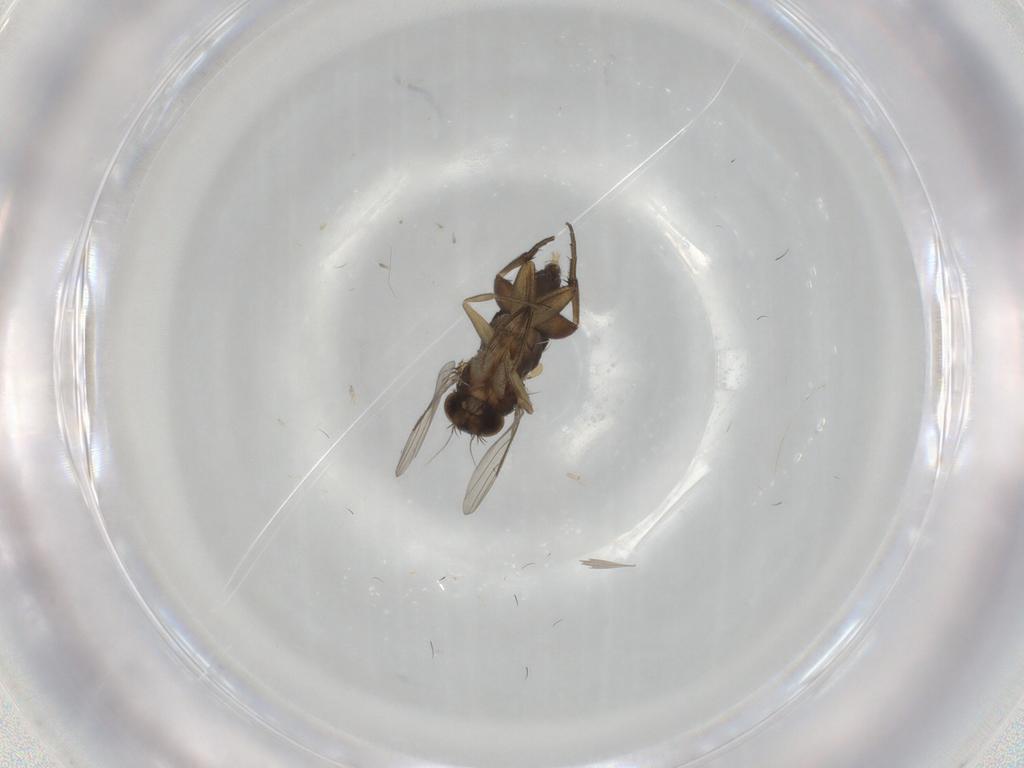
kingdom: Animalia
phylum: Arthropoda
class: Insecta
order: Diptera
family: Phoridae
